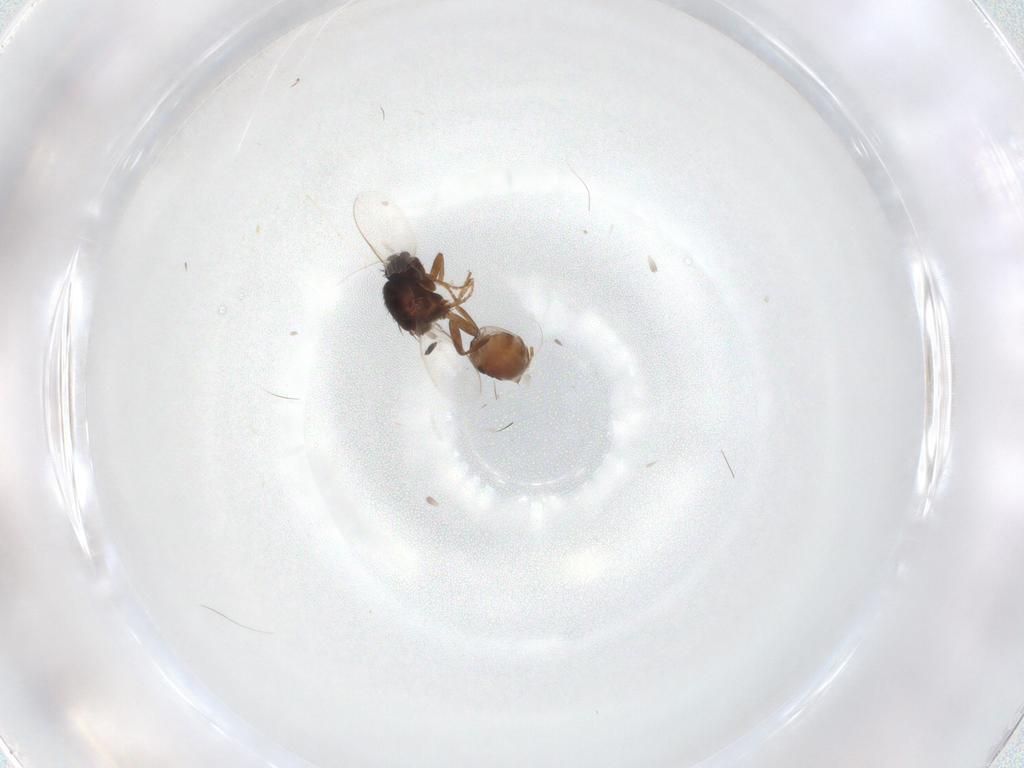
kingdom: Animalia
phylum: Arthropoda
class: Insecta
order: Diptera
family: Sphaeroceridae
